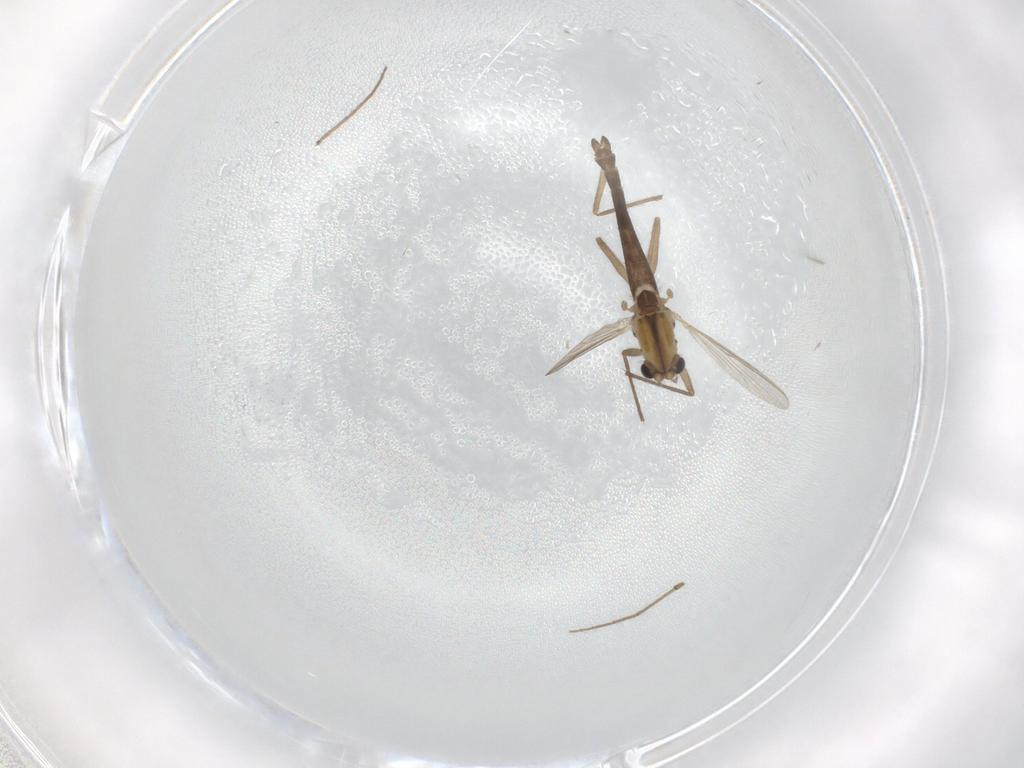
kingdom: Animalia
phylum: Arthropoda
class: Insecta
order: Diptera
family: Chironomidae
